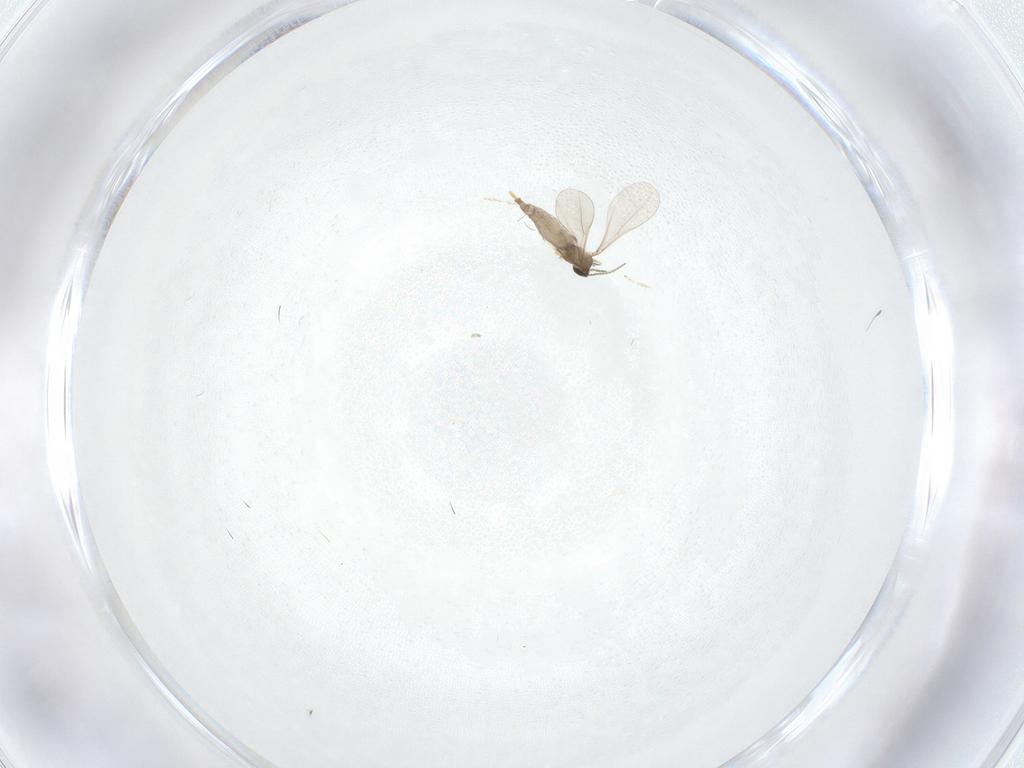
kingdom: Animalia
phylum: Arthropoda
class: Insecta
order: Diptera
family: Cecidomyiidae
